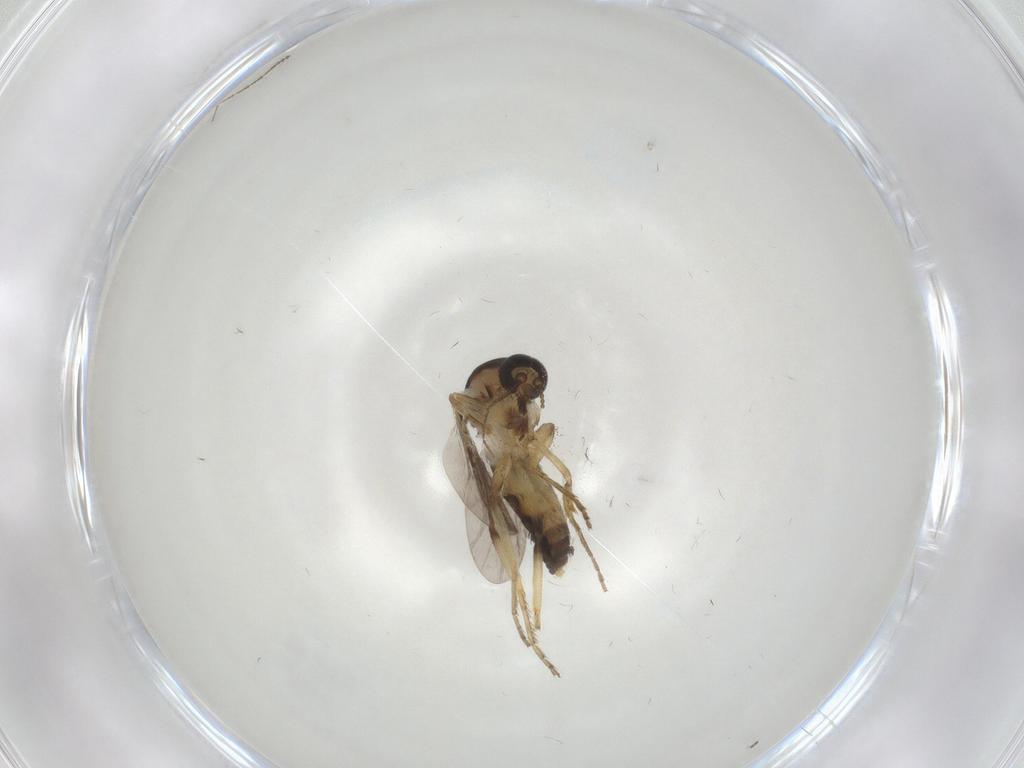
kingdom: Animalia
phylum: Arthropoda
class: Insecta
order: Diptera
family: Ceratopogonidae
